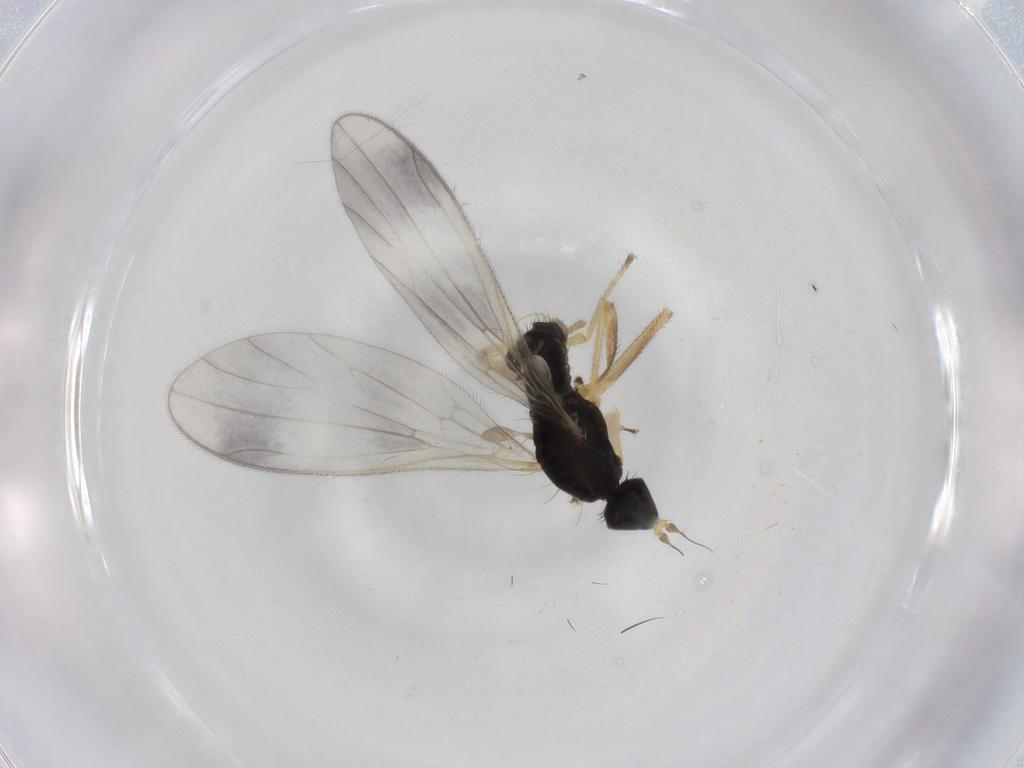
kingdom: Animalia
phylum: Arthropoda
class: Insecta
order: Diptera
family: Empididae
